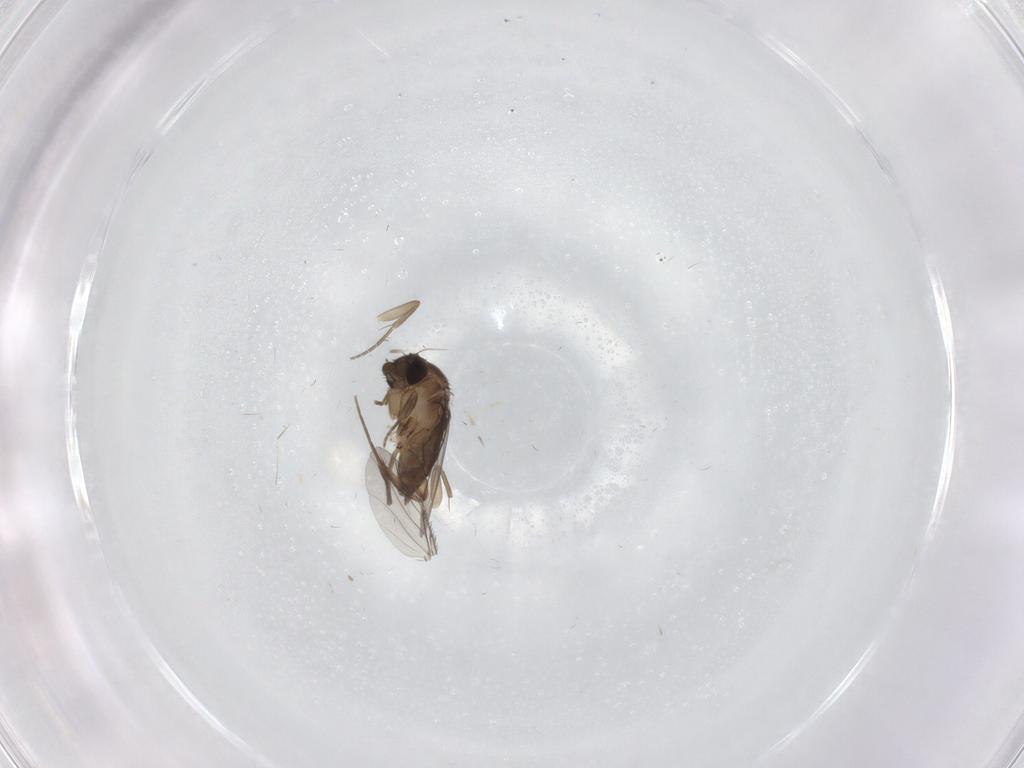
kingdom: Animalia
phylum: Arthropoda
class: Insecta
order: Diptera
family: Phoridae
